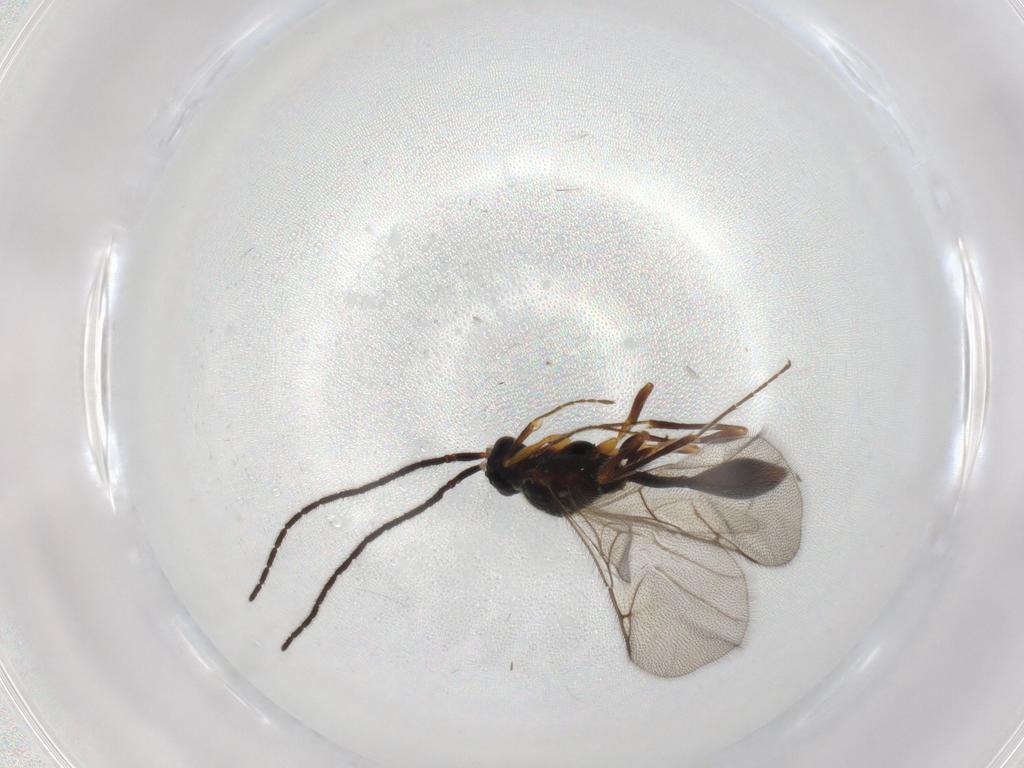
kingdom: Animalia
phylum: Arthropoda
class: Insecta
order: Hymenoptera
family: Diapriidae
